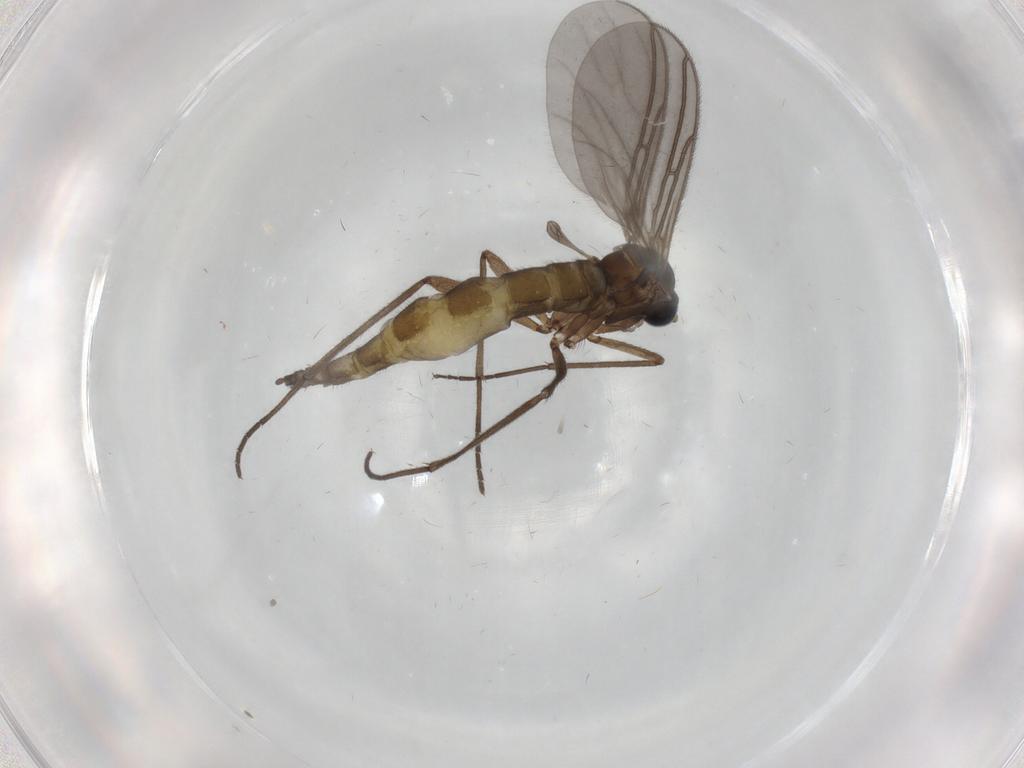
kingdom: Animalia
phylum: Arthropoda
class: Insecta
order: Diptera
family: Sciaridae
